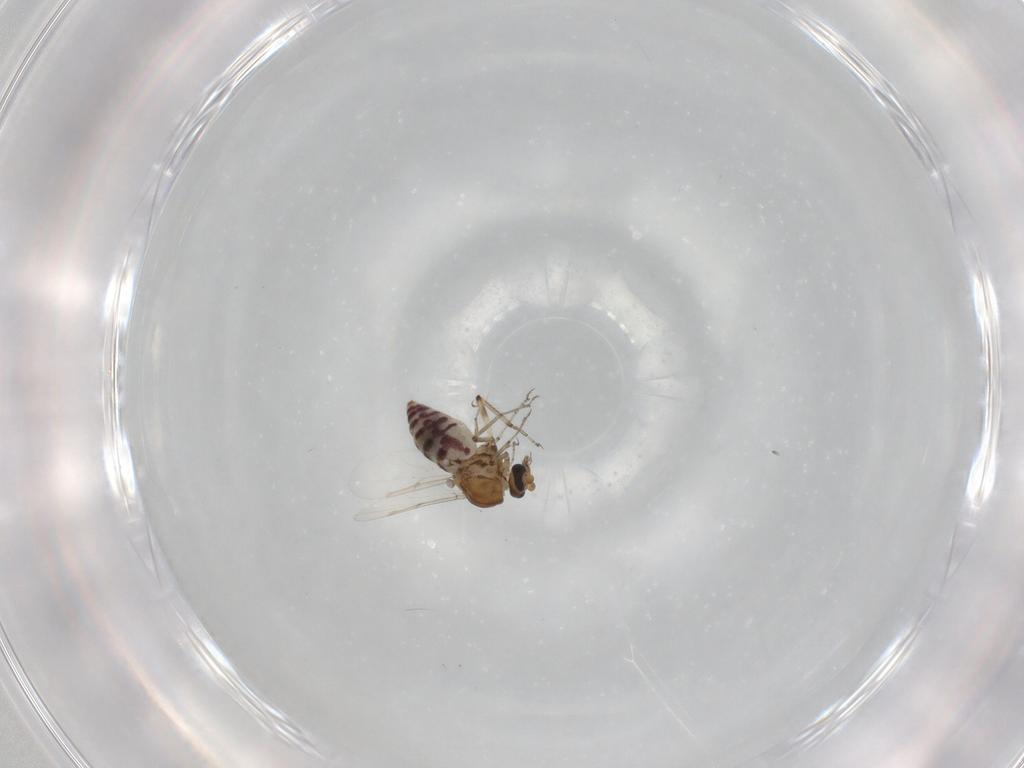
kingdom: Animalia
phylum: Arthropoda
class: Insecta
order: Diptera
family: Ceratopogonidae
